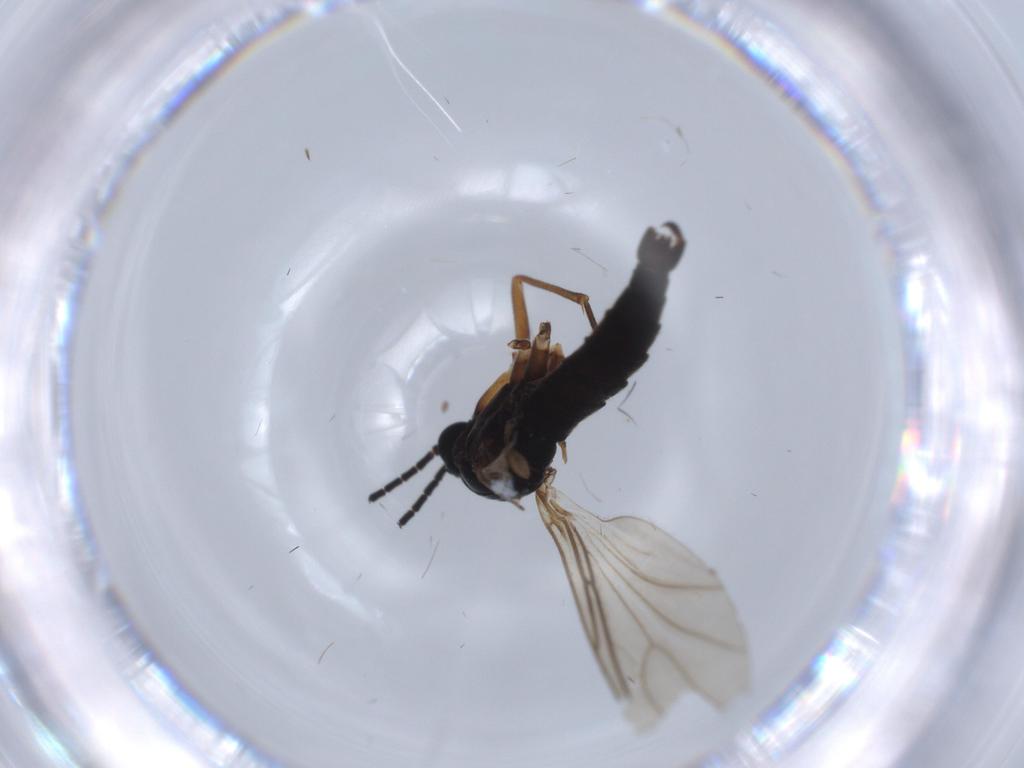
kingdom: Animalia
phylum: Arthropoda
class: Insecta
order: Diptera
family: Sciaridae
